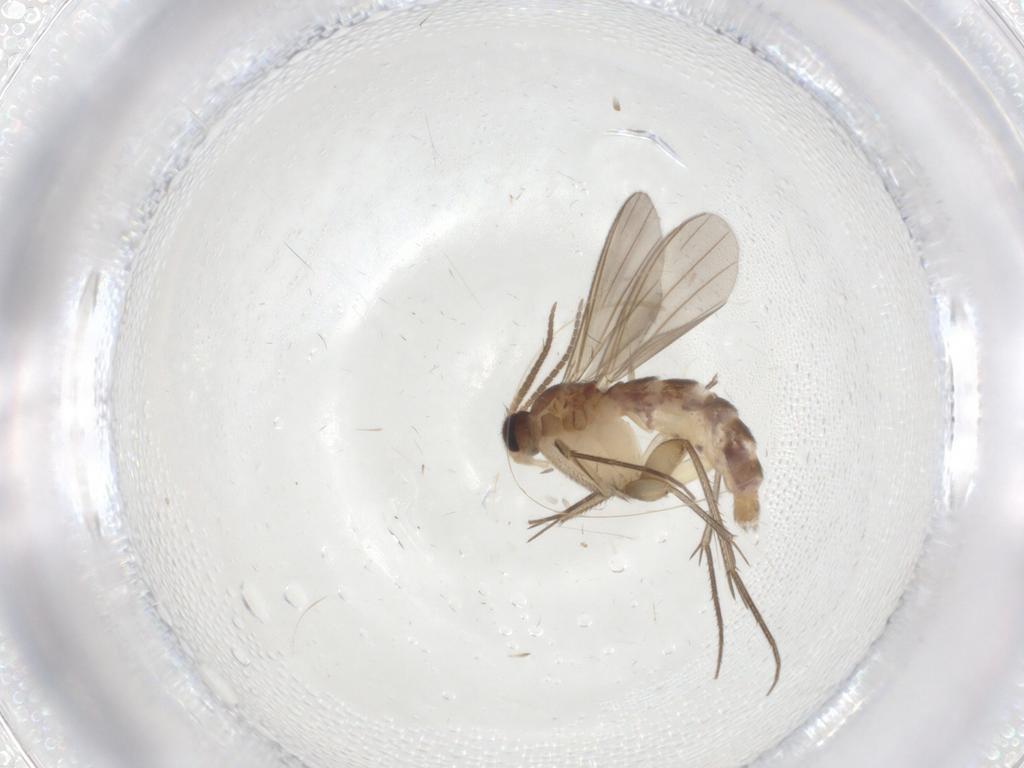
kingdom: Animalia
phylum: Arthropoda
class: Insecta
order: Diptera
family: Mycetophilidae
